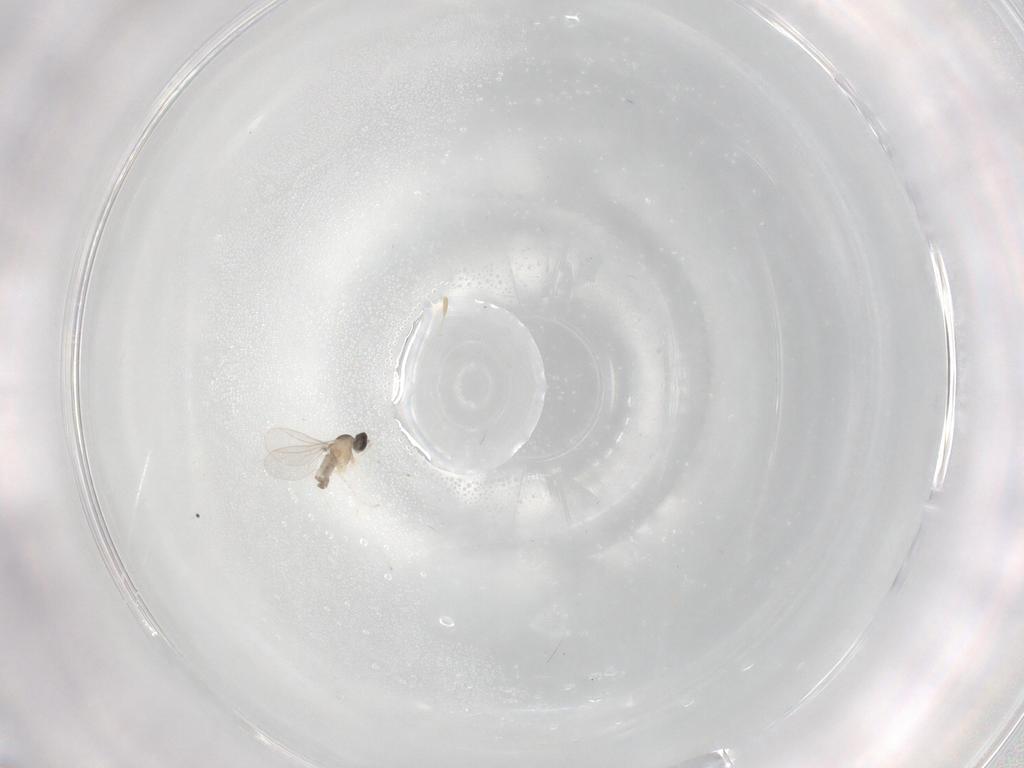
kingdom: Animalia
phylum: Arthropoda
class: Insecta
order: Diptera
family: Cecidomyiidae
